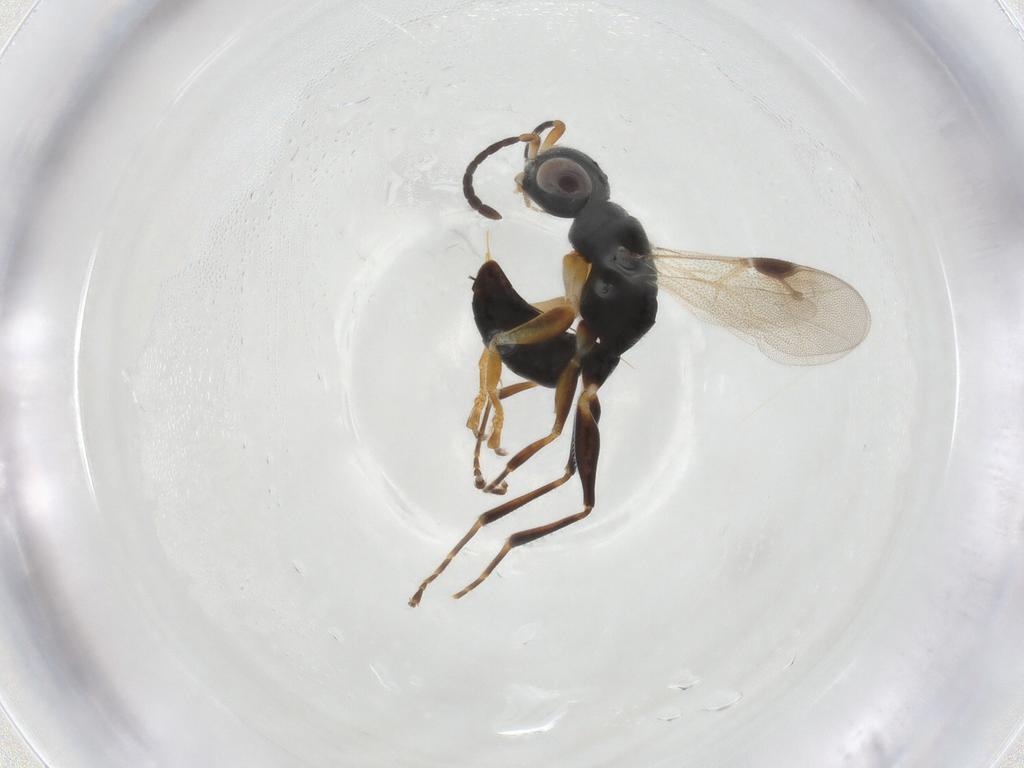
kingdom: Animalia
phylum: Arthropoda
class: Insecta
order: Hymenoptera
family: Dryinidae
